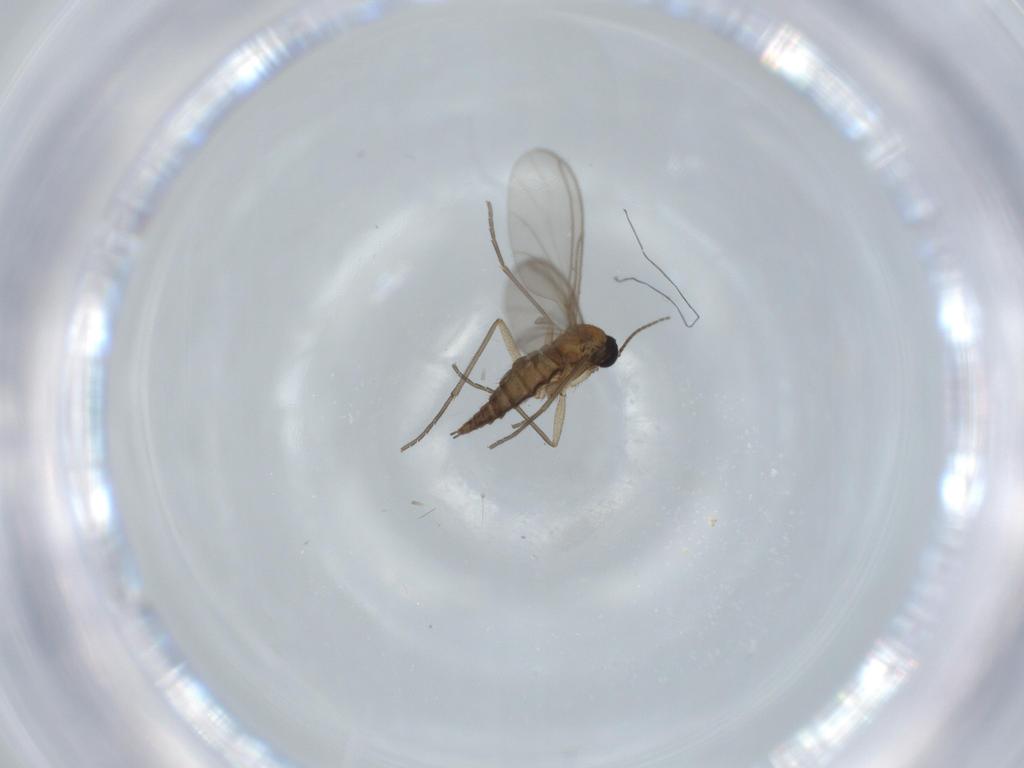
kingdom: Animalia
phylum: Arthropoda
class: Insecta
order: Diptera
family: Sciaridae
